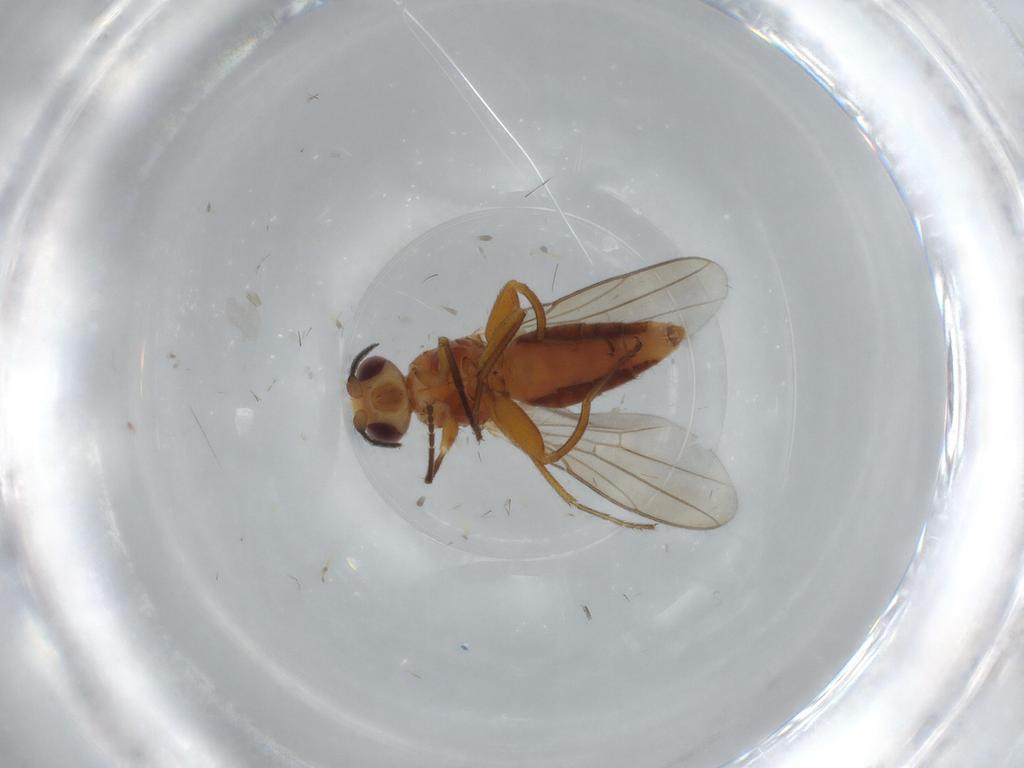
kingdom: Animalia
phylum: Arthropoda
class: Insecta
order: Diptera
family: Chloropidae
